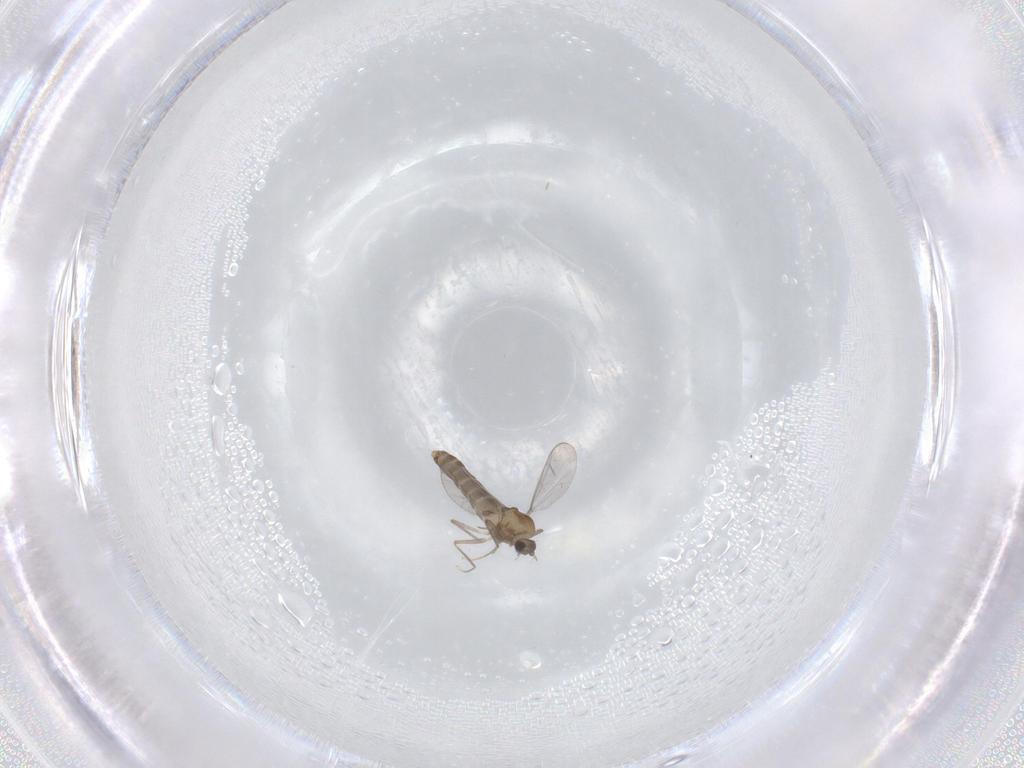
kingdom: Animalia
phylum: Arthropoda
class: Insecta
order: Diptera
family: Chironomidae
